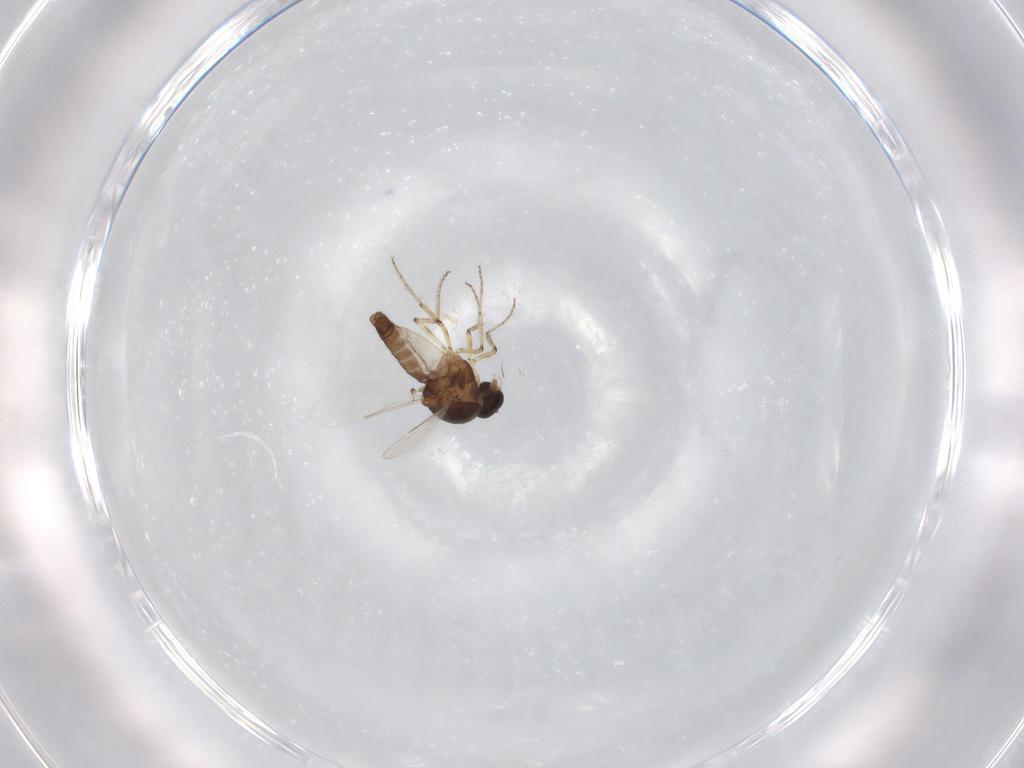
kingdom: Animalia
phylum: Arthropoda
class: Insecta
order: Diptera
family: Ceratopogonidae
